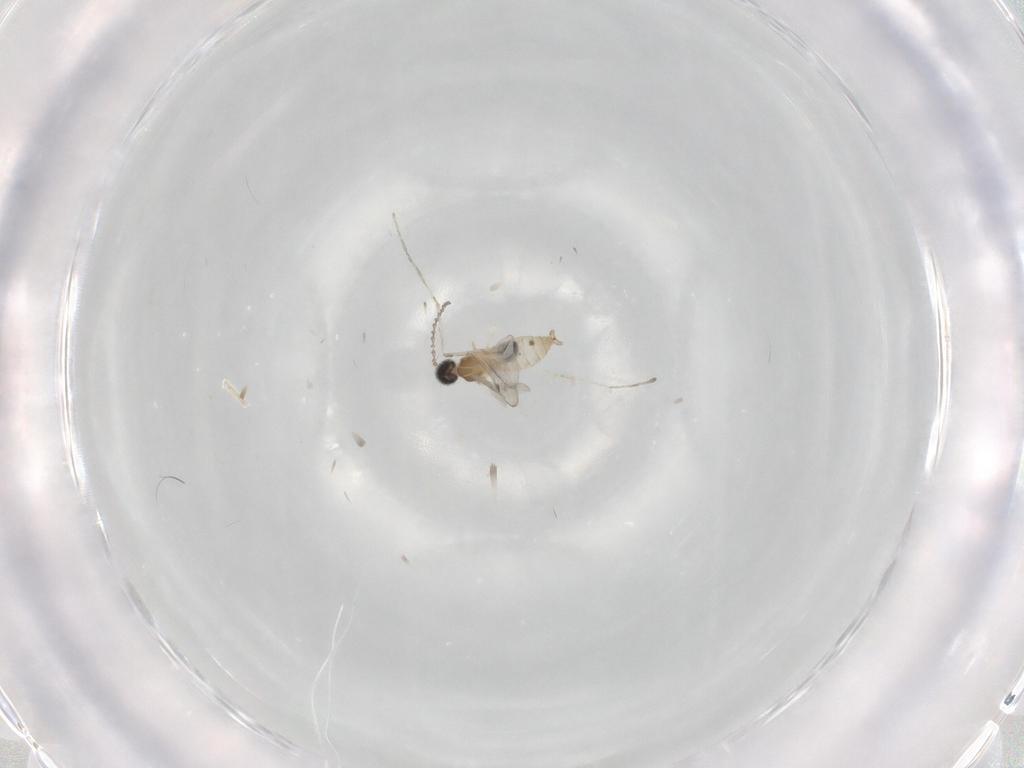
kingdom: Animalia
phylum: Arthropoda
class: Insecta
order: Diptera
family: Cecidomyiidae
